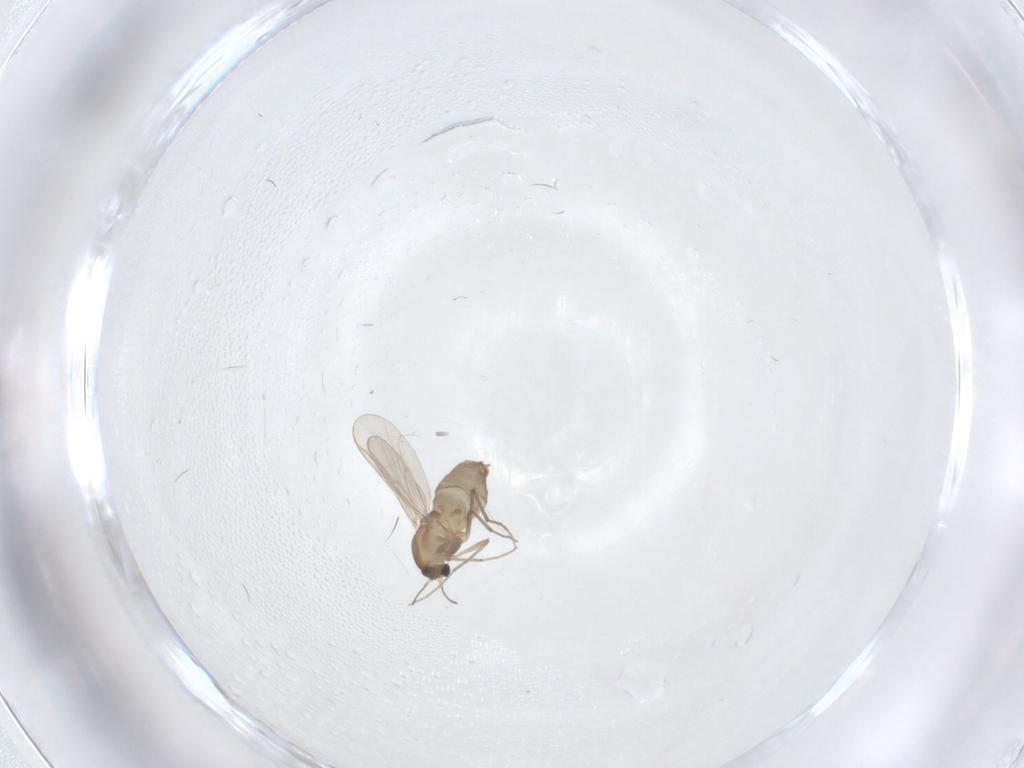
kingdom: Animalia
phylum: Arthropoda
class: Insecta
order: Diptera
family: Chironomidae
